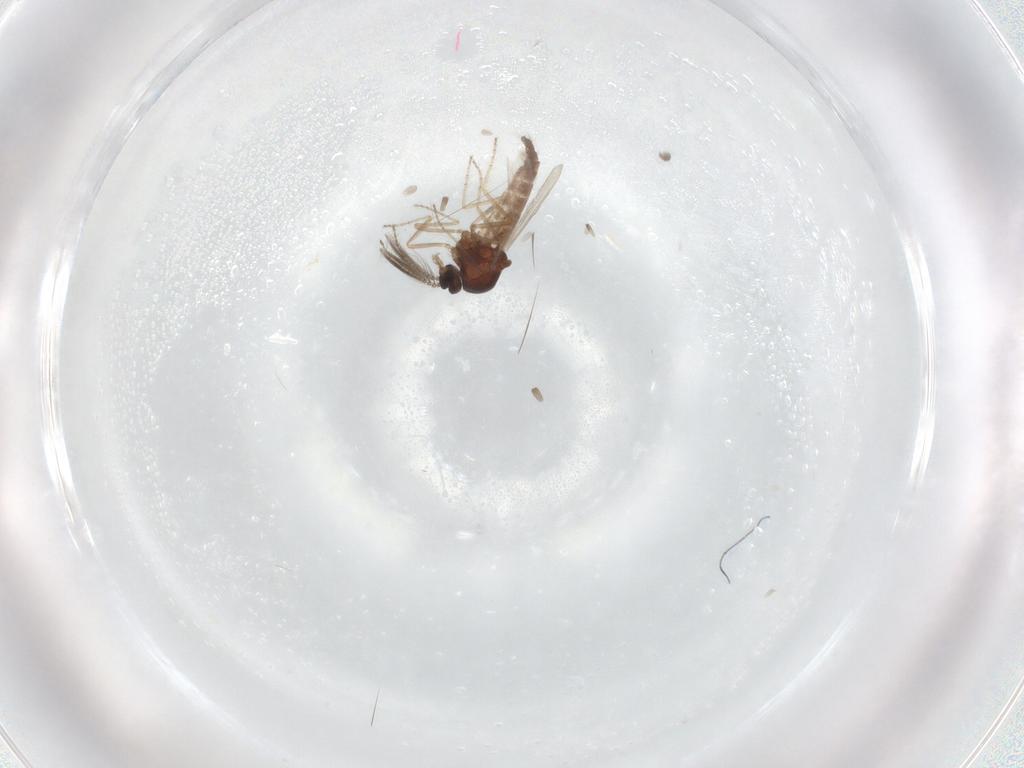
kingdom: Animalia
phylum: Arthropoda
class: Insecta
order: Diptera
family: Ceratopogonidae
